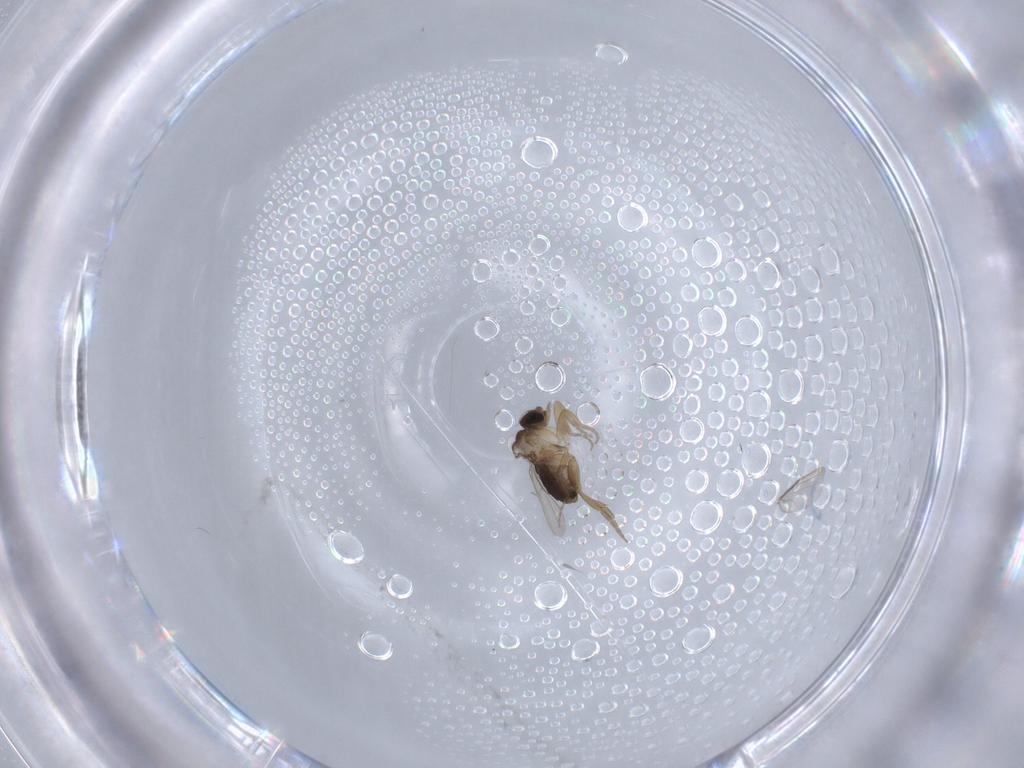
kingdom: Animalia
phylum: Arthropoda
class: Insecta
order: Diptera
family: Phoridae
